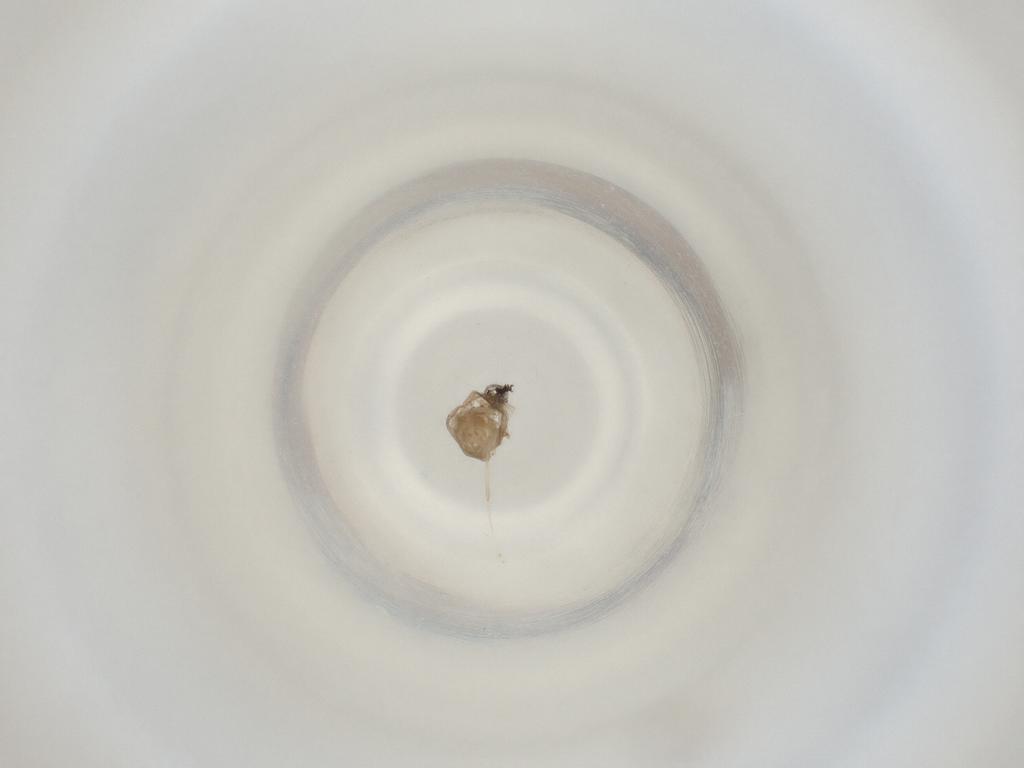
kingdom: Animalia
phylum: Arthropoda
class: Insecta
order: Diptera
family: Cecidomyiidae
